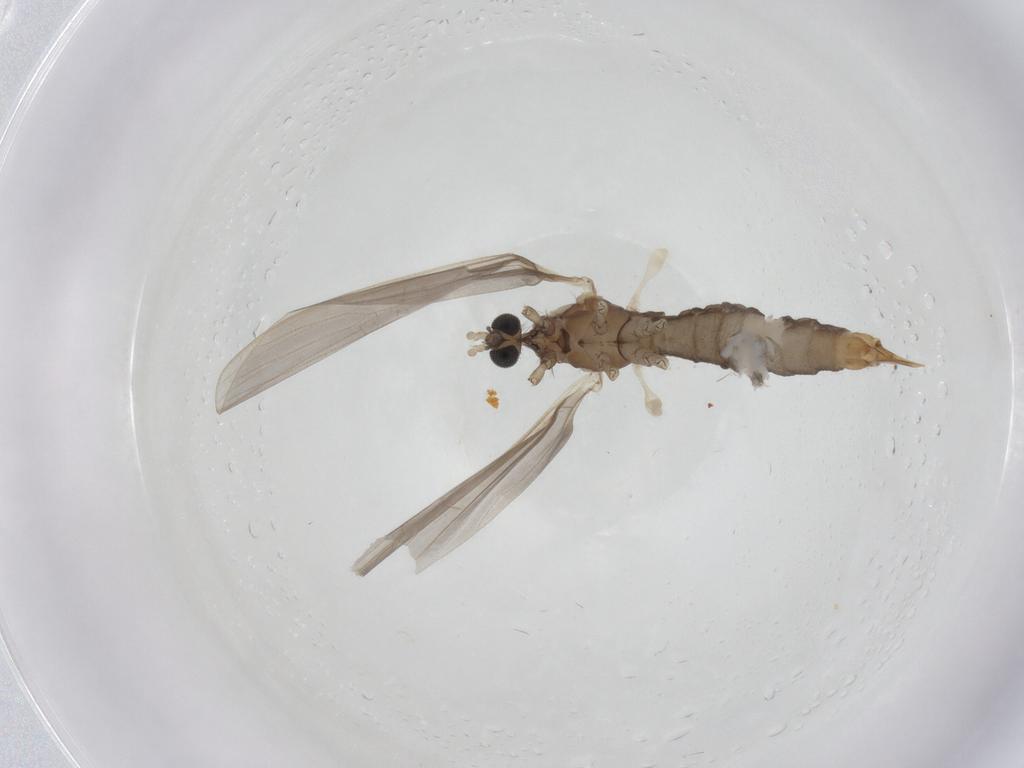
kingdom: Animalia
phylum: Arthropoda
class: Insecta
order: Diptera
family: Limoniidae
